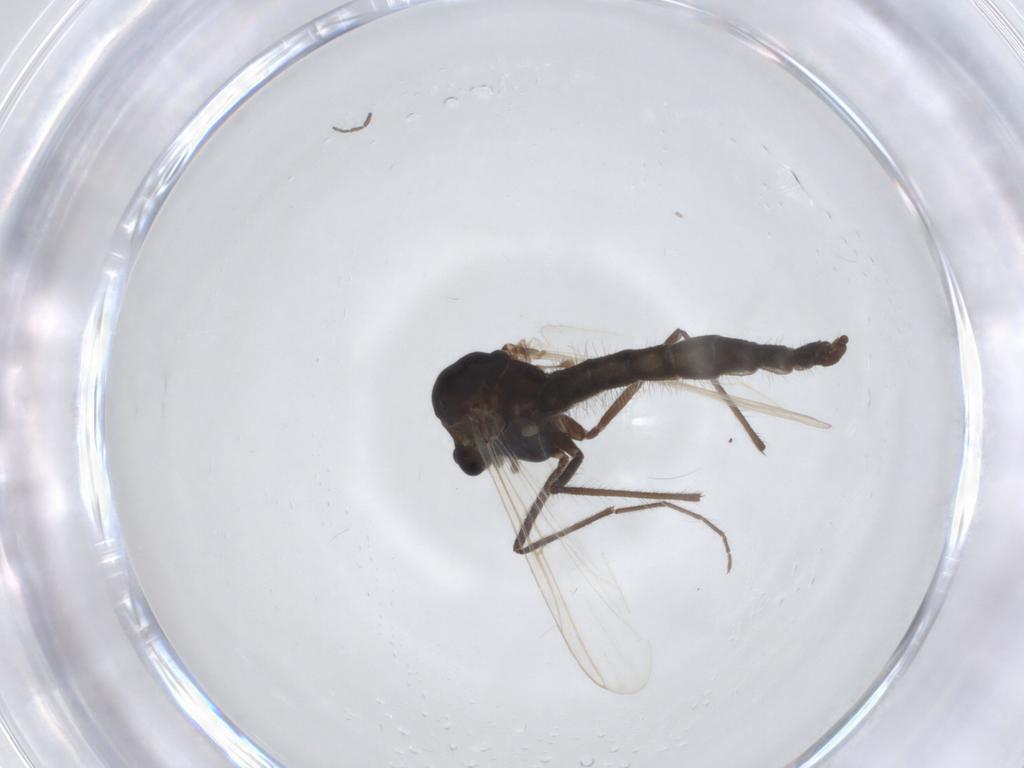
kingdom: Animalia
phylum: Arthropoda
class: Insecta
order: Diptera
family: Chironomidae
